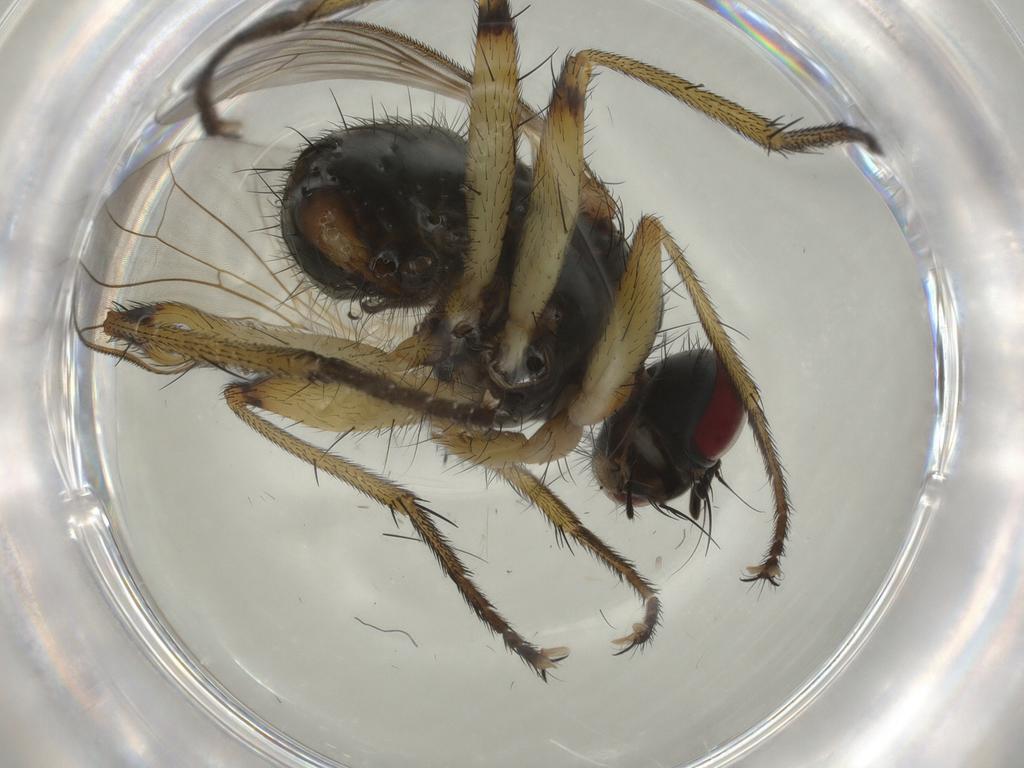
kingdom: Animalia
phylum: Arthropoda
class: Insecta
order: Diptera
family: Muscidae
